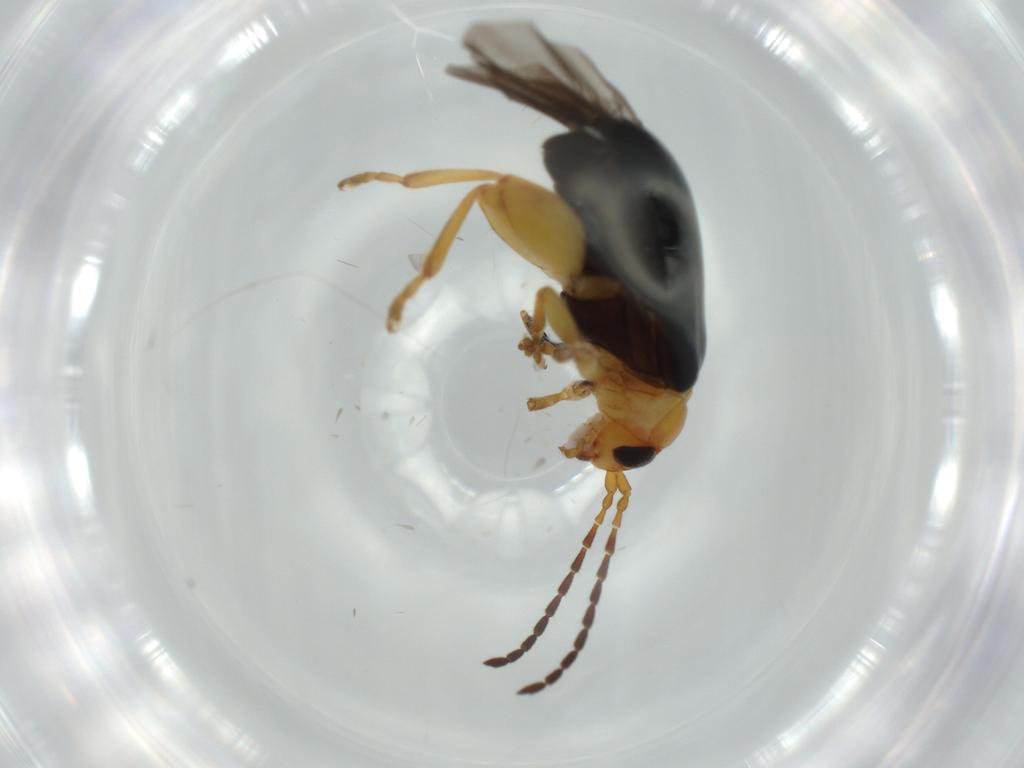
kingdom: Animalia
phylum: Arthropoda
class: Insecta
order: Coleoptera
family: Chrysomelidae
